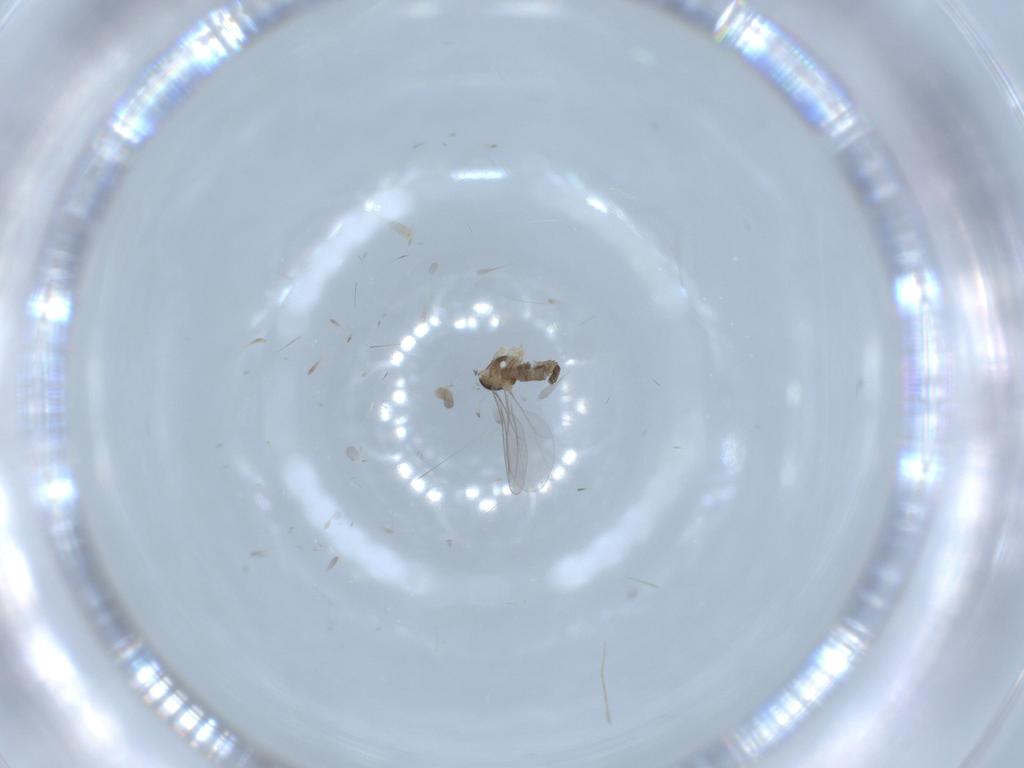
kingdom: Animalia
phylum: Arthropoda
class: Insecta
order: Diptera
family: Cecidomyiidae
